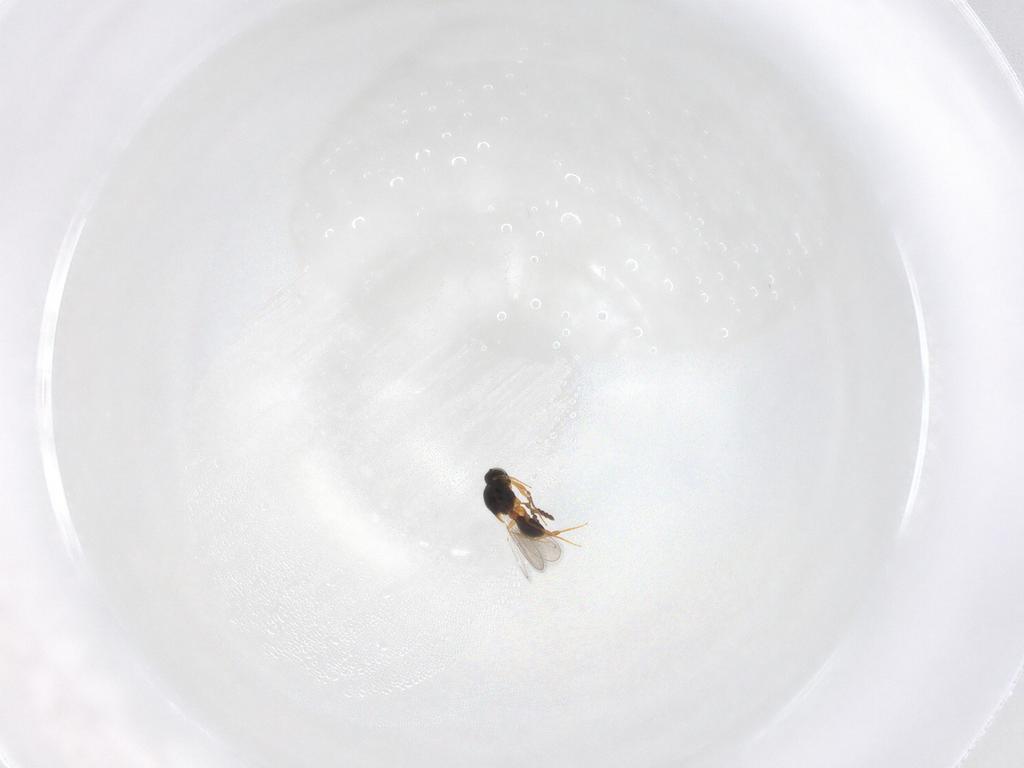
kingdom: Animalia
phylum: Arthropoda
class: Insecta
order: Hymenoptera
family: Platygastridae
